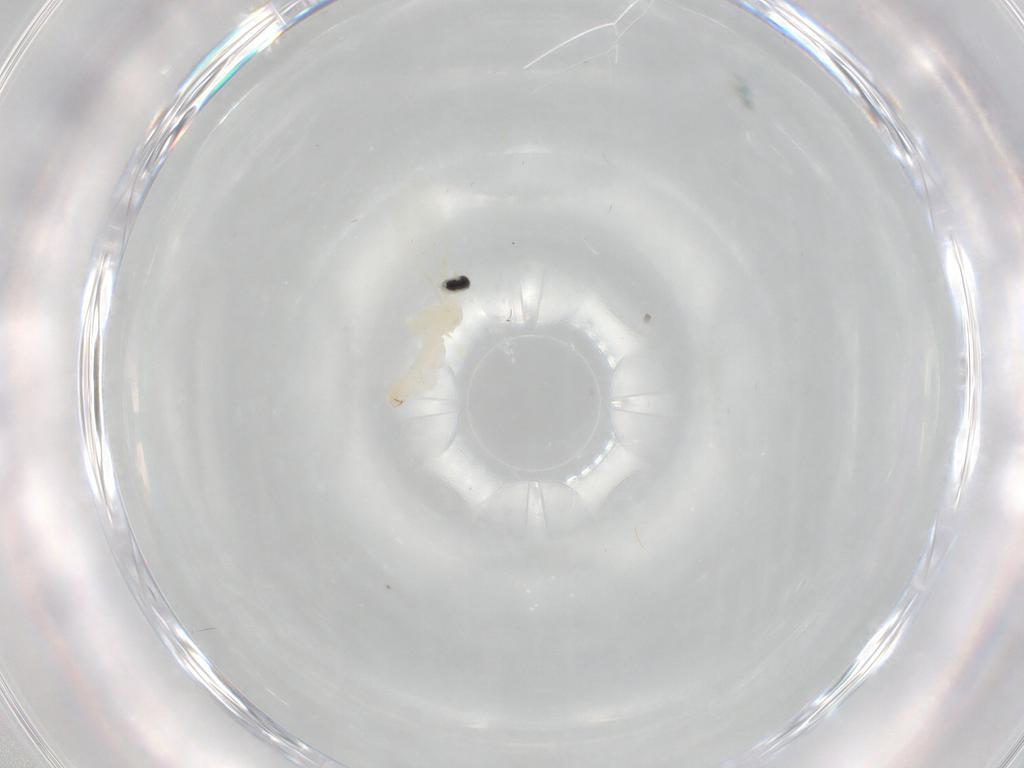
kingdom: Animalia
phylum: Arthropoda
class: Insecta
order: Diptera
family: Cecidomyiidae
